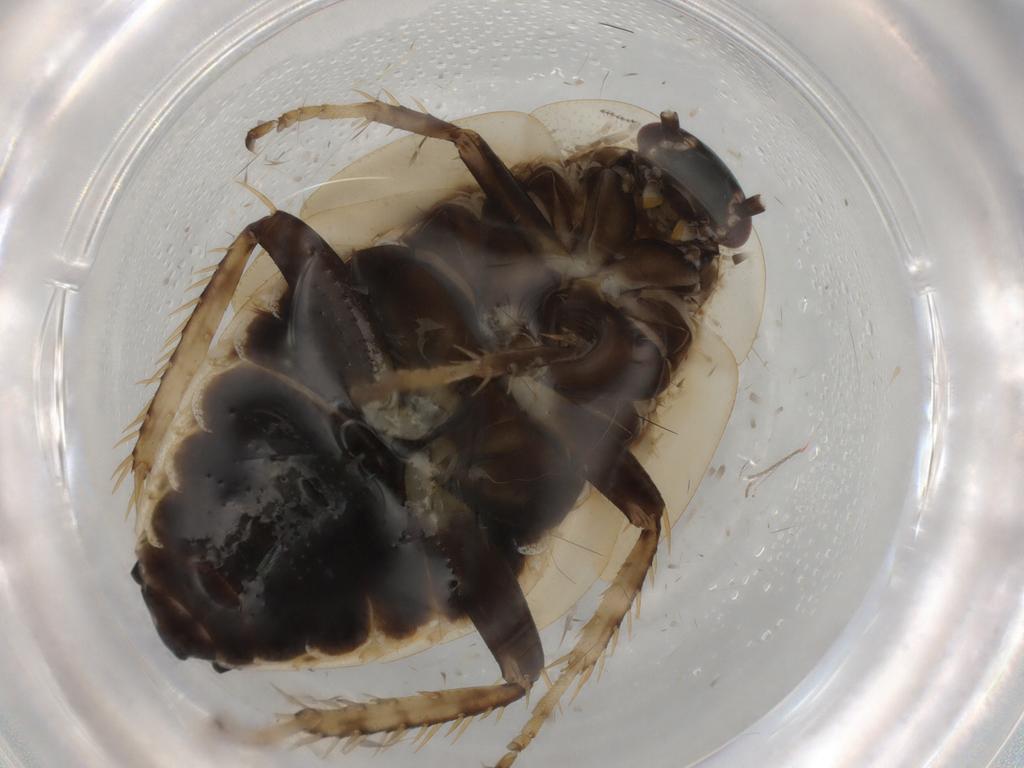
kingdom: Animalia
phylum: Arthropoda
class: Insecta
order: Blattodea
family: Ectobiidae
